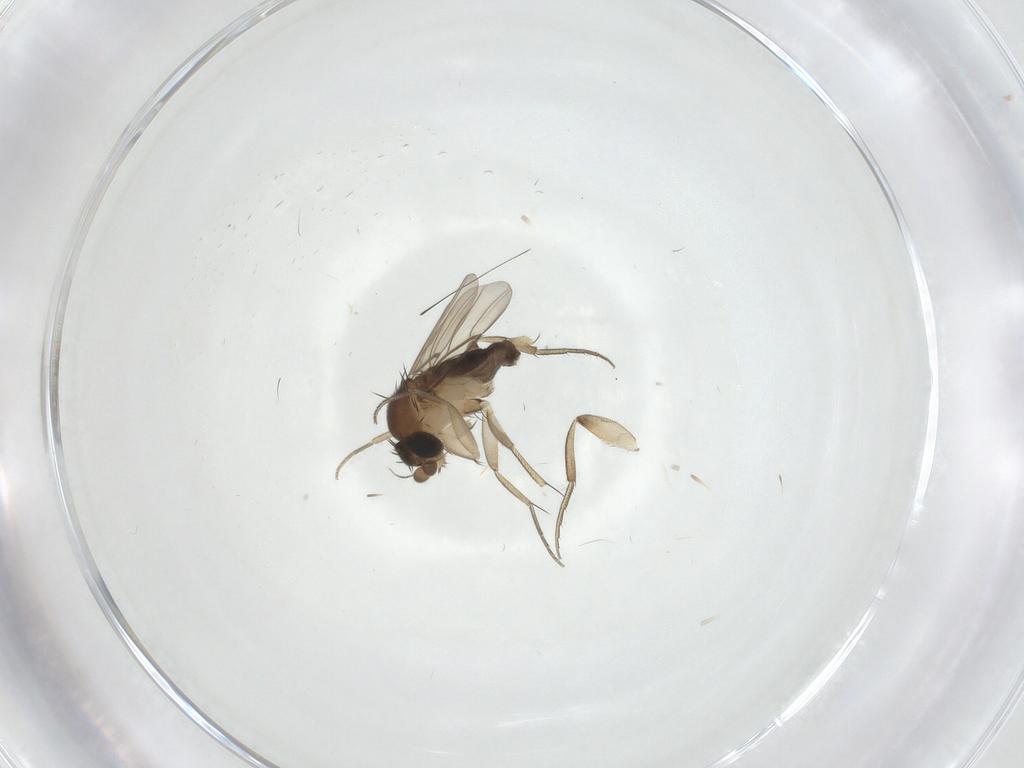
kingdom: Animalia
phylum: Arthropoda
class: Insecta
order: Diptera
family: Phoridae
